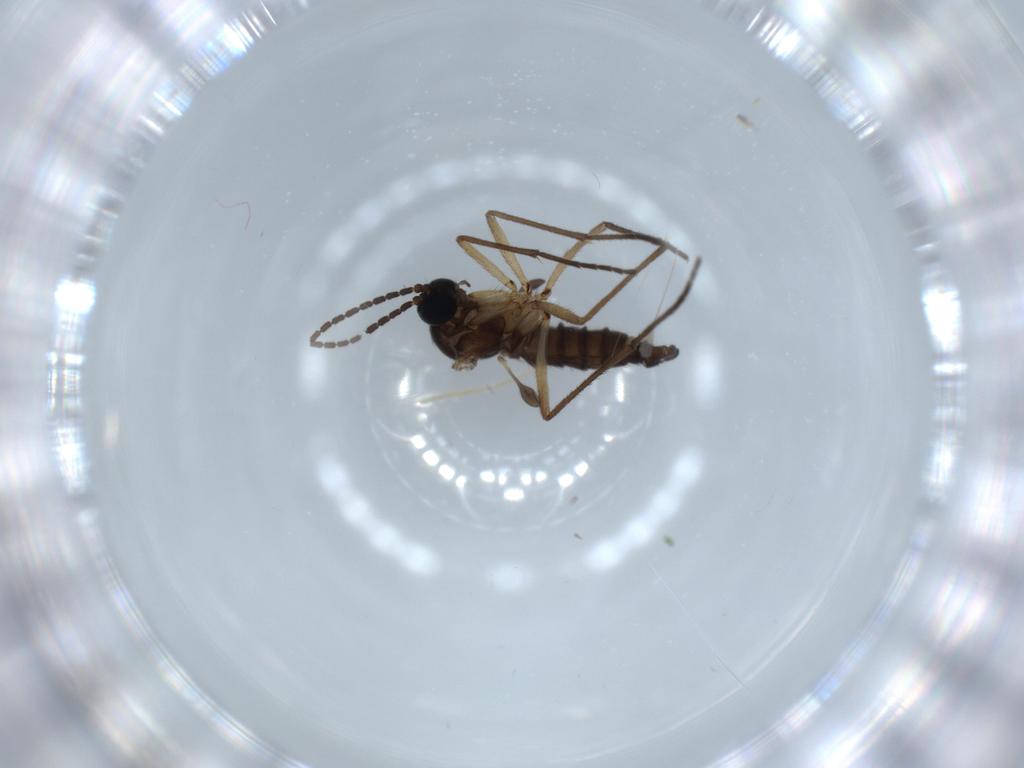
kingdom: Animalia
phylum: Arthropoda
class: Insecta
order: Diptera
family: Sciaridae
